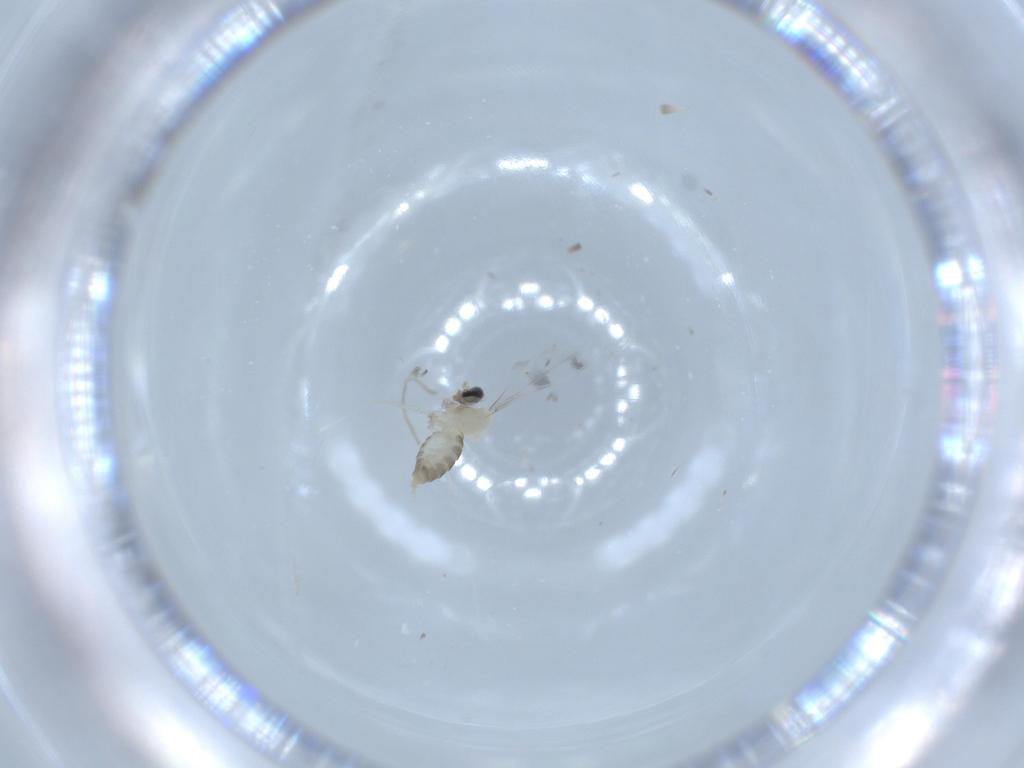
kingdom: Animalia
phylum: Arthropoda
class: Insecta
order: Diptera
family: Cecidomyiidae
